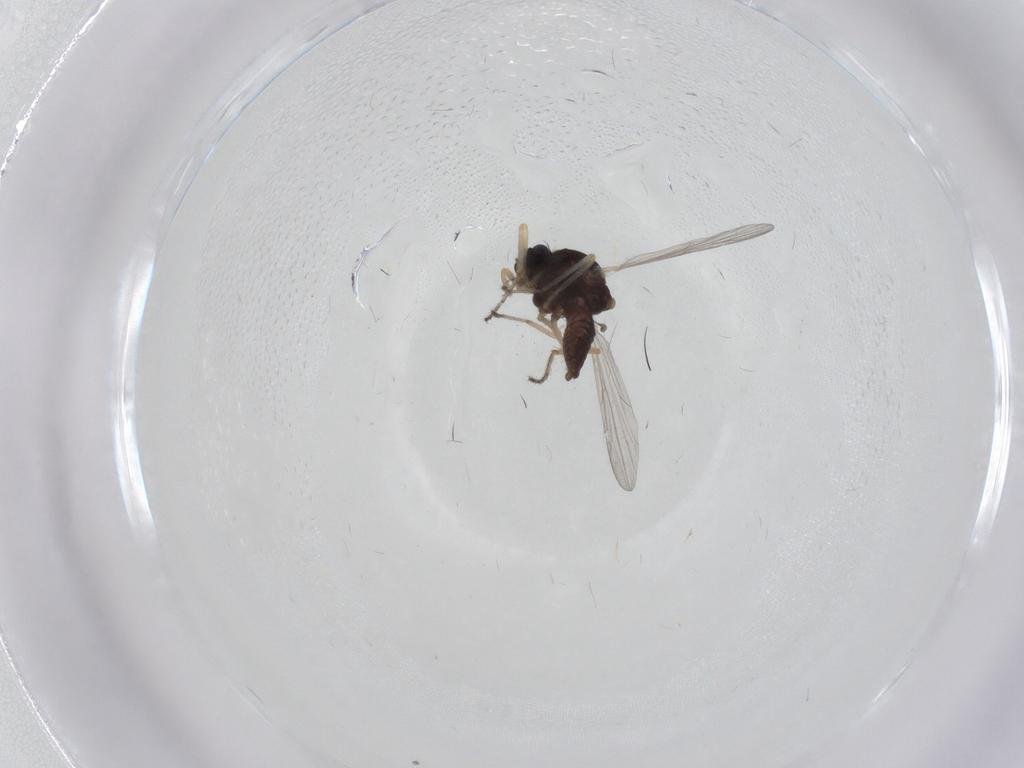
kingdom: Animalia
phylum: Arthropoda
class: Insecta
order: Diptera
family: Ceratopogonidae
